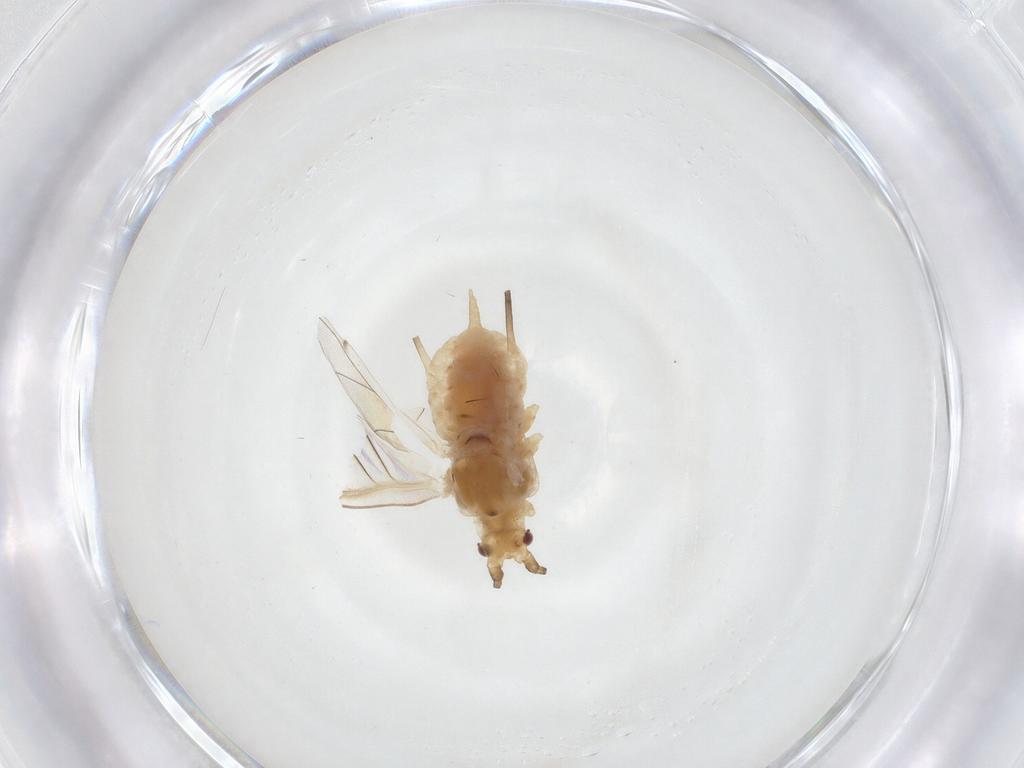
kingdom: Animalia
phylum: Arthropoda
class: Insecta
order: Hemiptera
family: Aphididae
